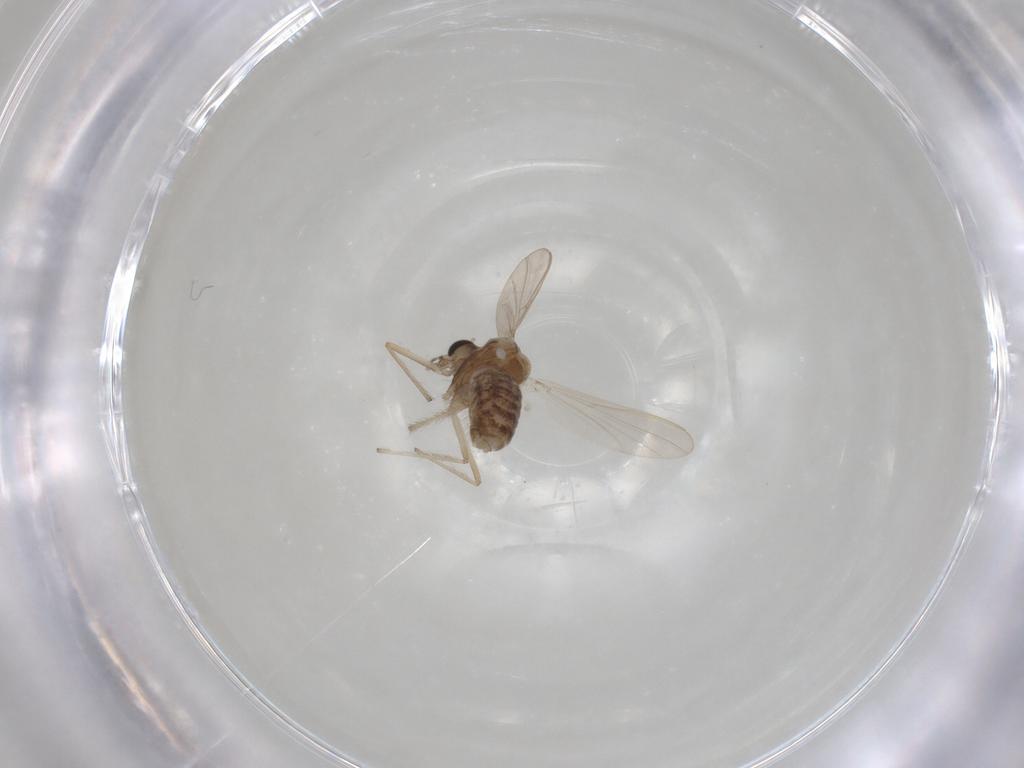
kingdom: Animalia
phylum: Arthropoda
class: Insecta
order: Diptera
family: Chironomidae
